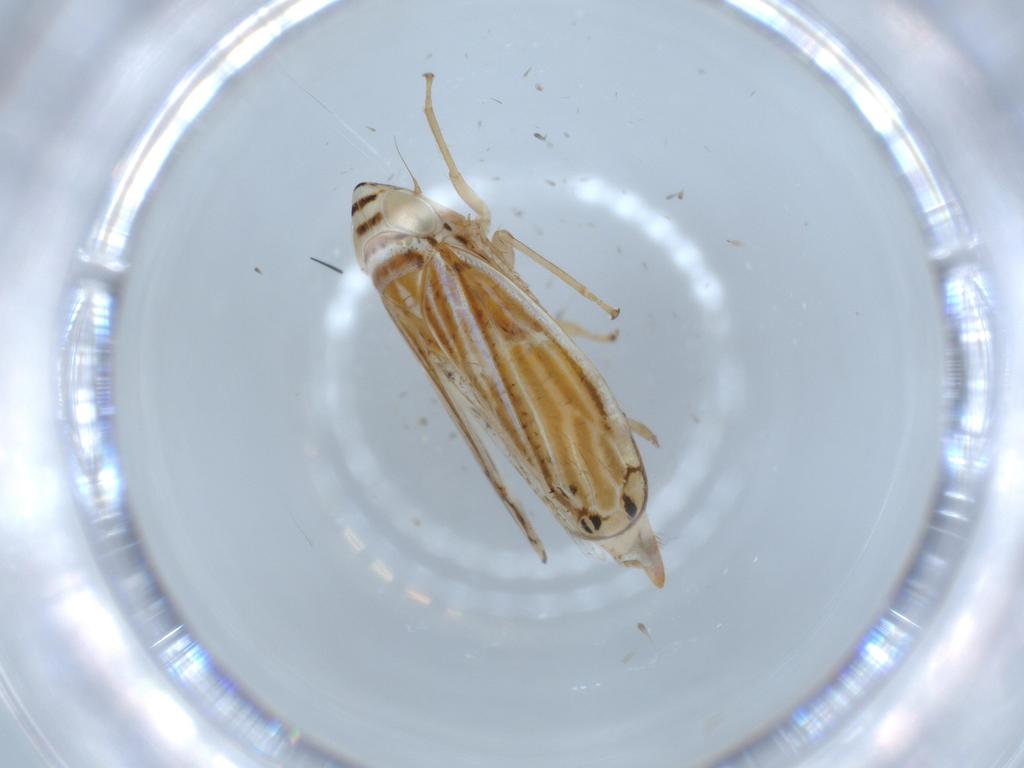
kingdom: Animalia
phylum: Arthropoda
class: Insecta
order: Hemiptera
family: Cicadellidae
